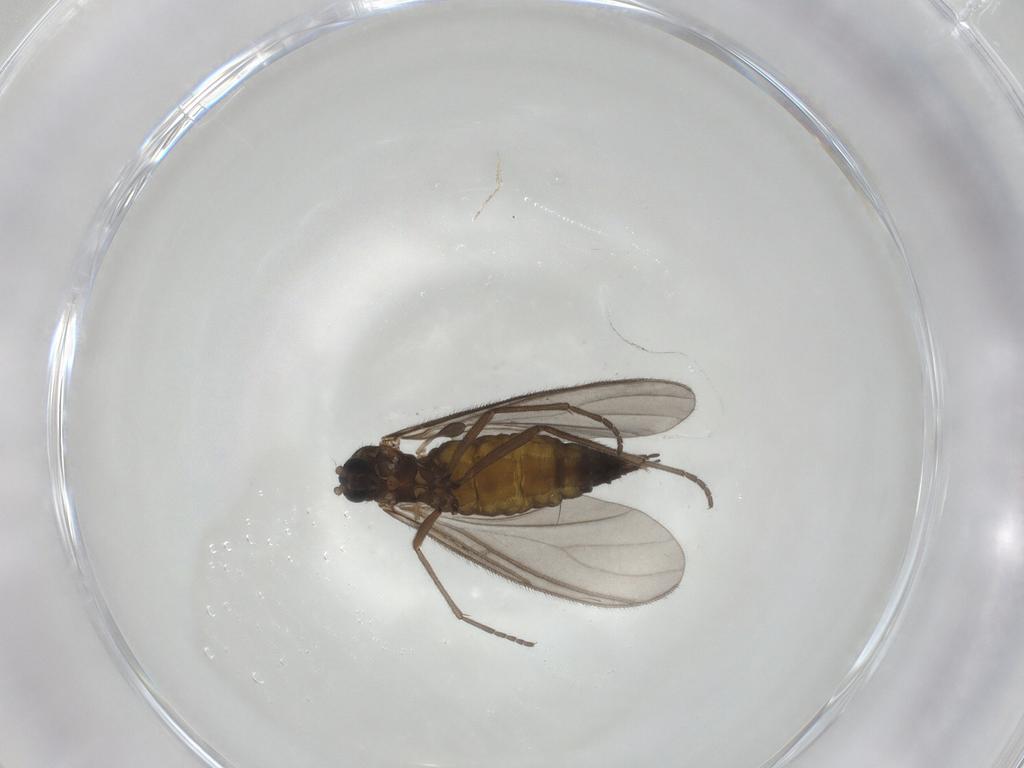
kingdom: Animalia
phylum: Arthropoda
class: Insecta
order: Diptera
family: Sciaridae
